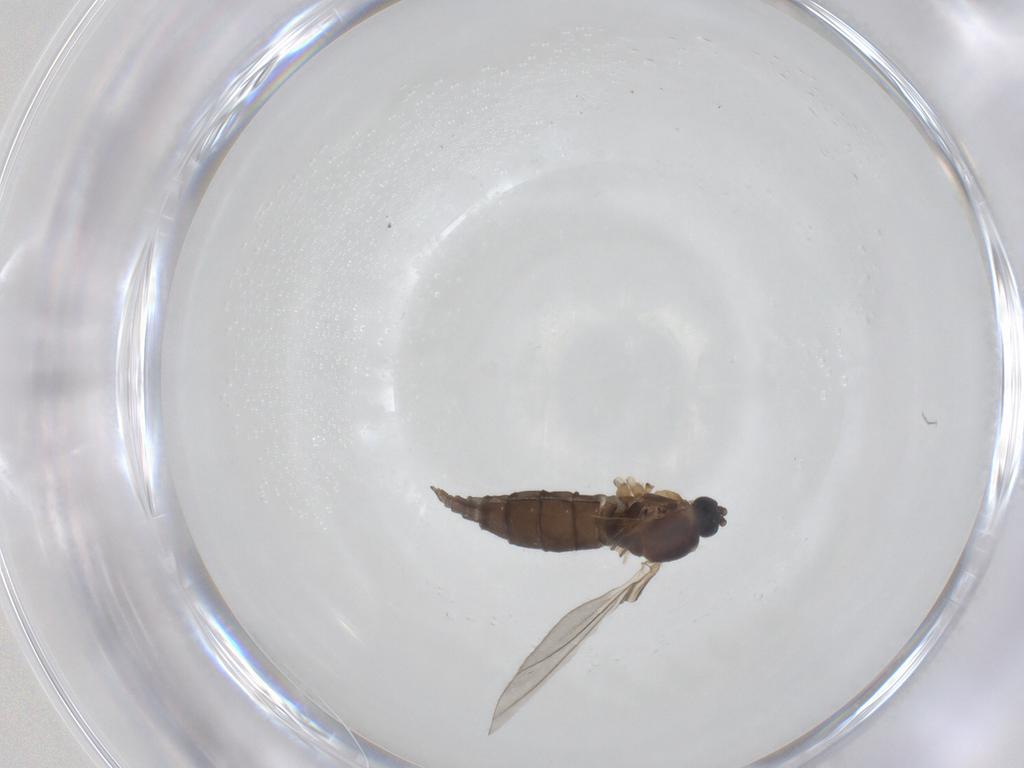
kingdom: Animalia
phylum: Arthropoda
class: Insecta
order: Diptera
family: Sciaridae
